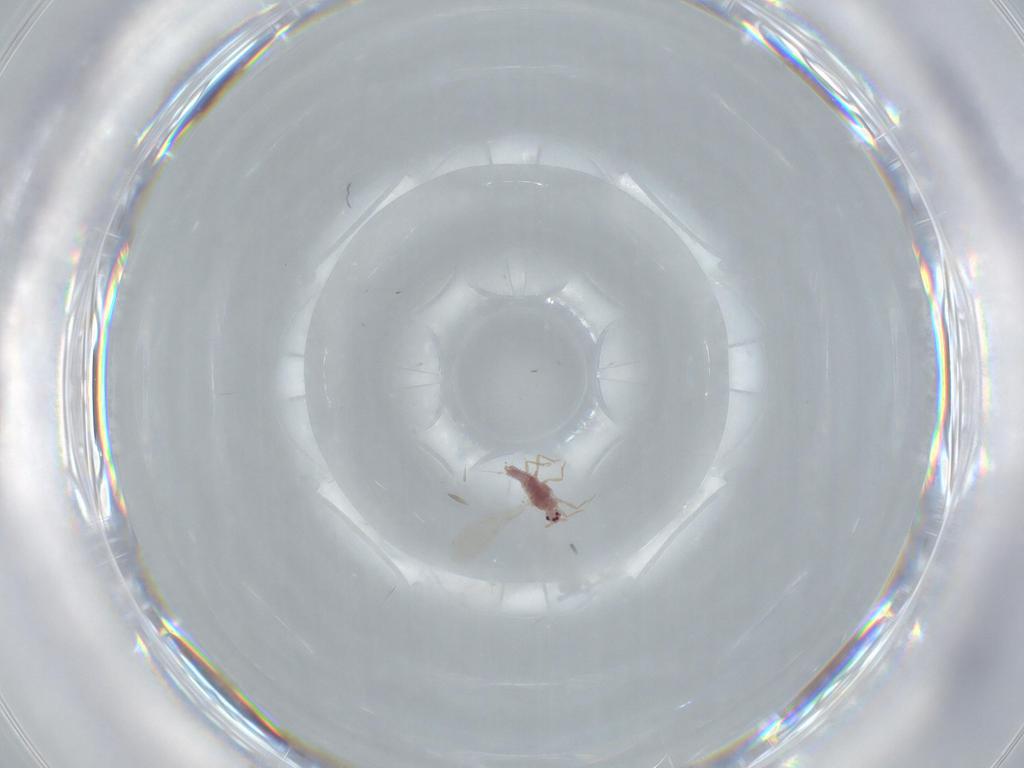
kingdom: Animalia
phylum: Arthropoda
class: Insecta
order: Hemiptera
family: Pseudococcidae
